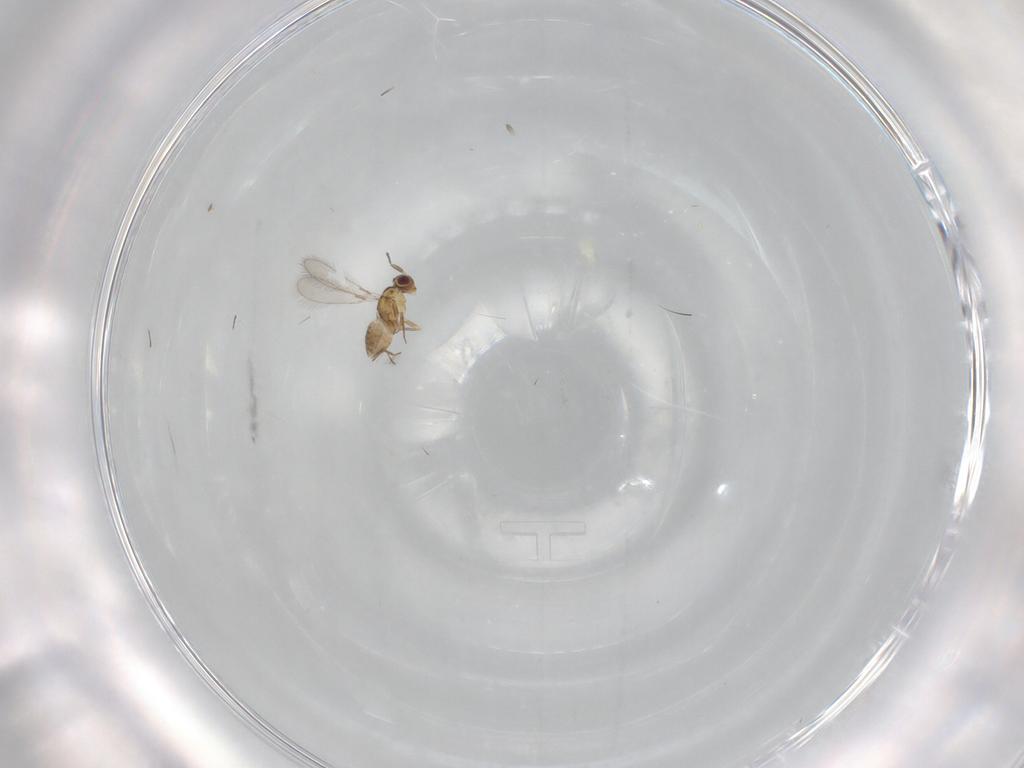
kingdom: Animalia
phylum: Arthropoda
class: Insecta
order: Hymenoptera
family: Mymaridae
